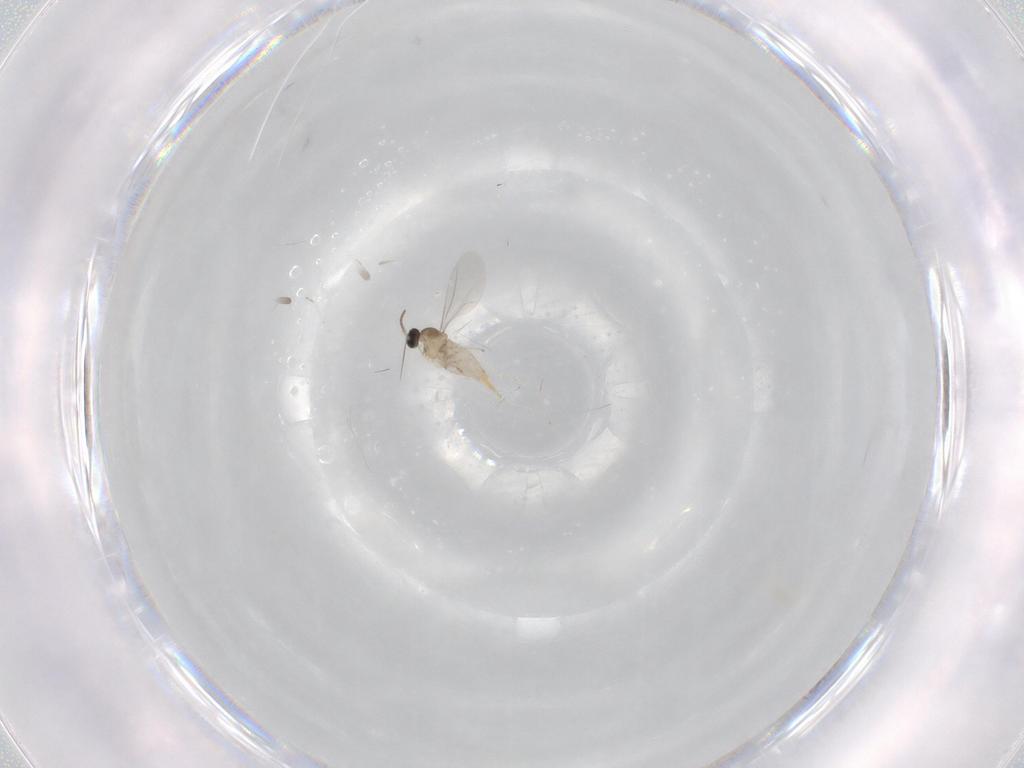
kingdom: Animalia
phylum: Arthropoda
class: Insecta
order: Diptera
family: Cecidomyiidae
